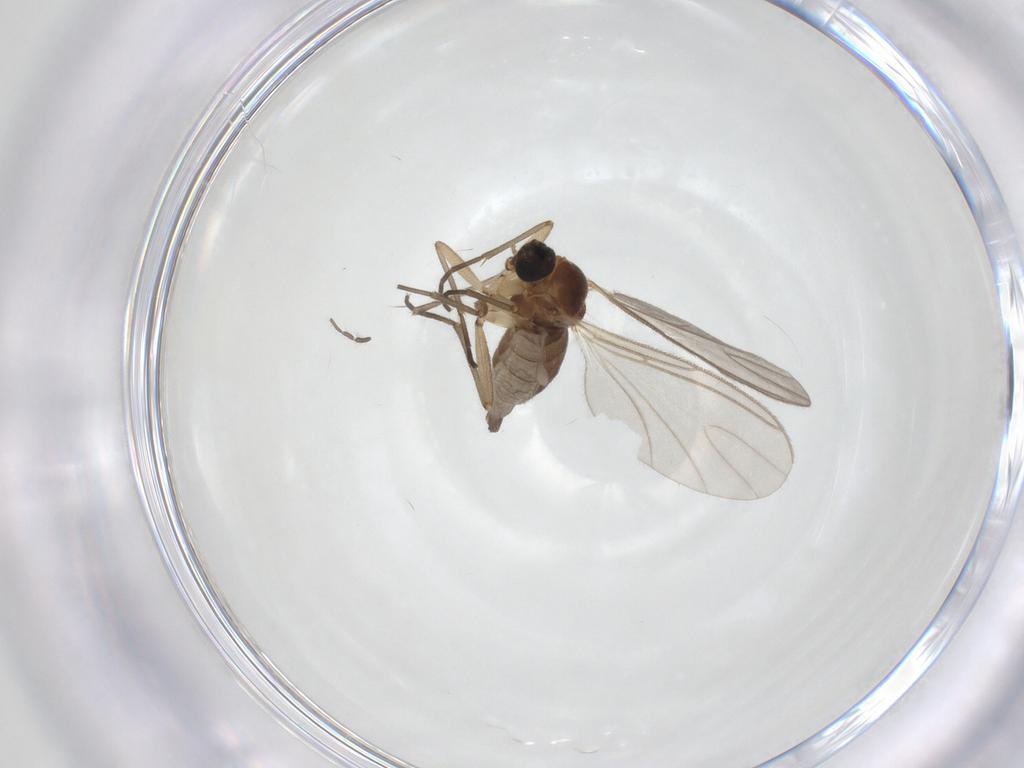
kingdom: Animalia
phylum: Arthropoda
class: Insecta
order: Diptera
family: Sciaridae
